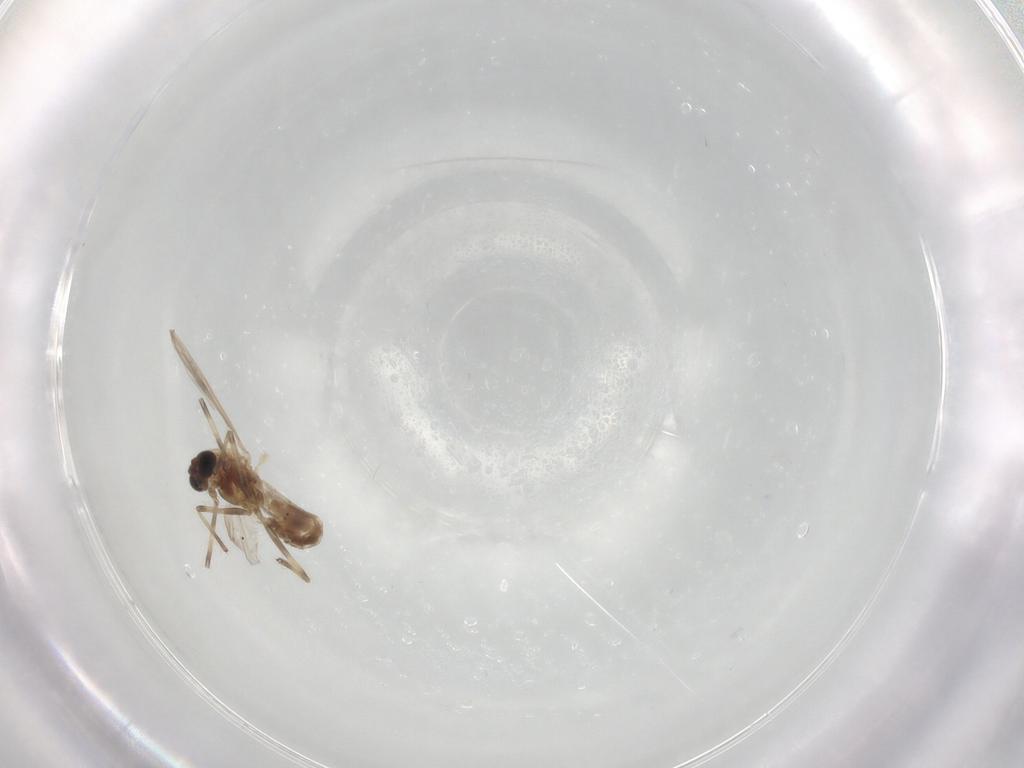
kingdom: Animalia
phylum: Arthropoda
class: Insecta
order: Diptera
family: Chironomidae
